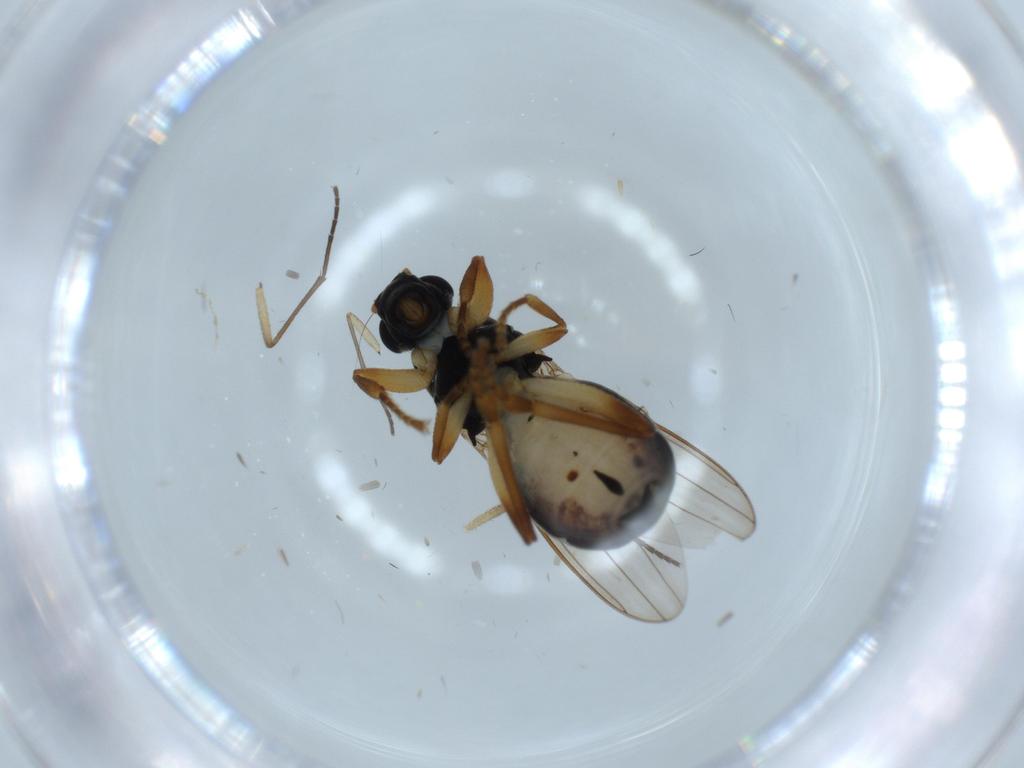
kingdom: Animalia
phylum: Arthropoda
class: Insecta
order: Diptera
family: Sciaridae
